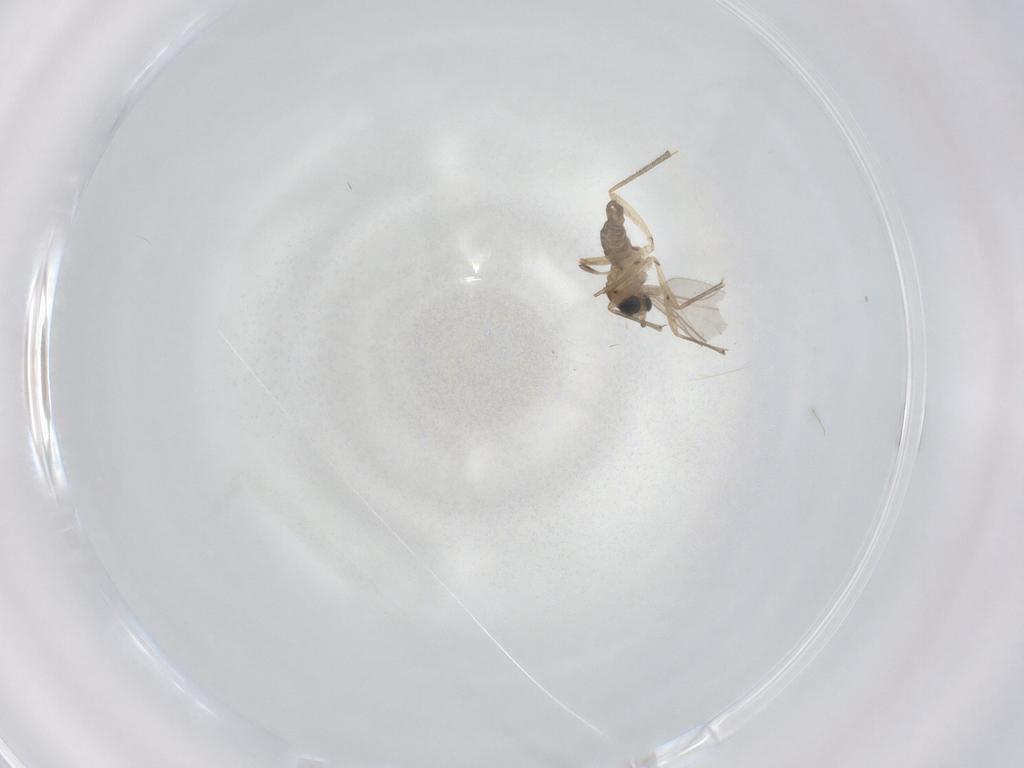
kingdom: Animalia
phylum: Arthropoda
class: Insecta
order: Diptera
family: Sciaridae
